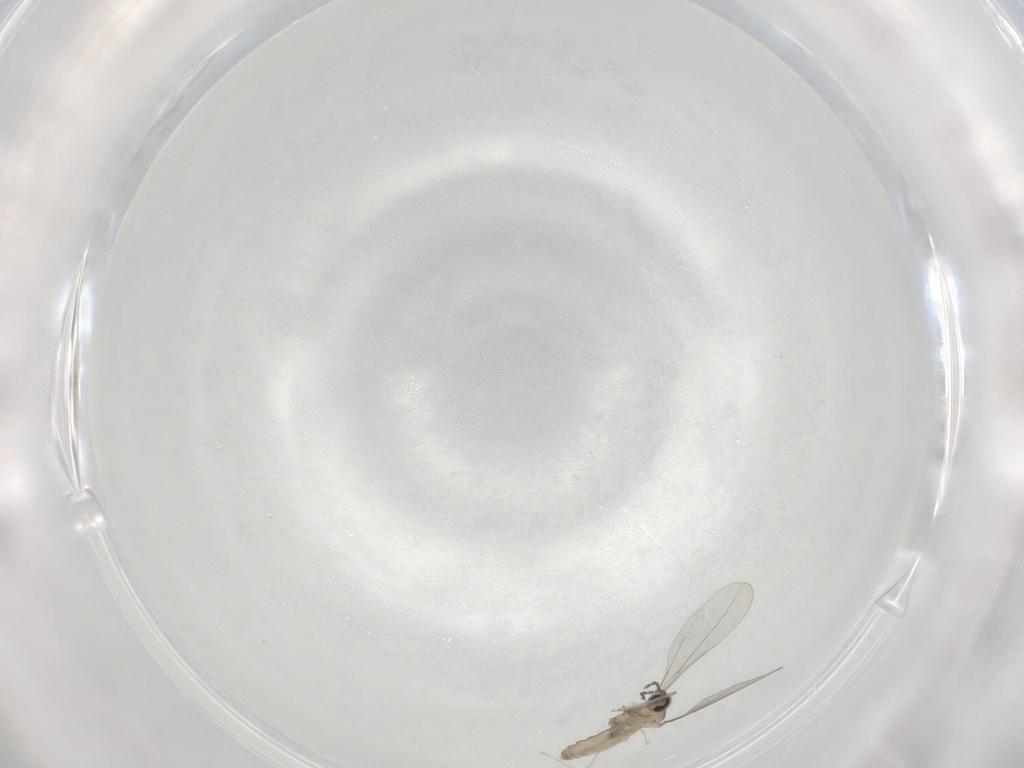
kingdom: Animalia
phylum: Arthropoda
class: Insecta
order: Diptera
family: Cecidomyiidae
